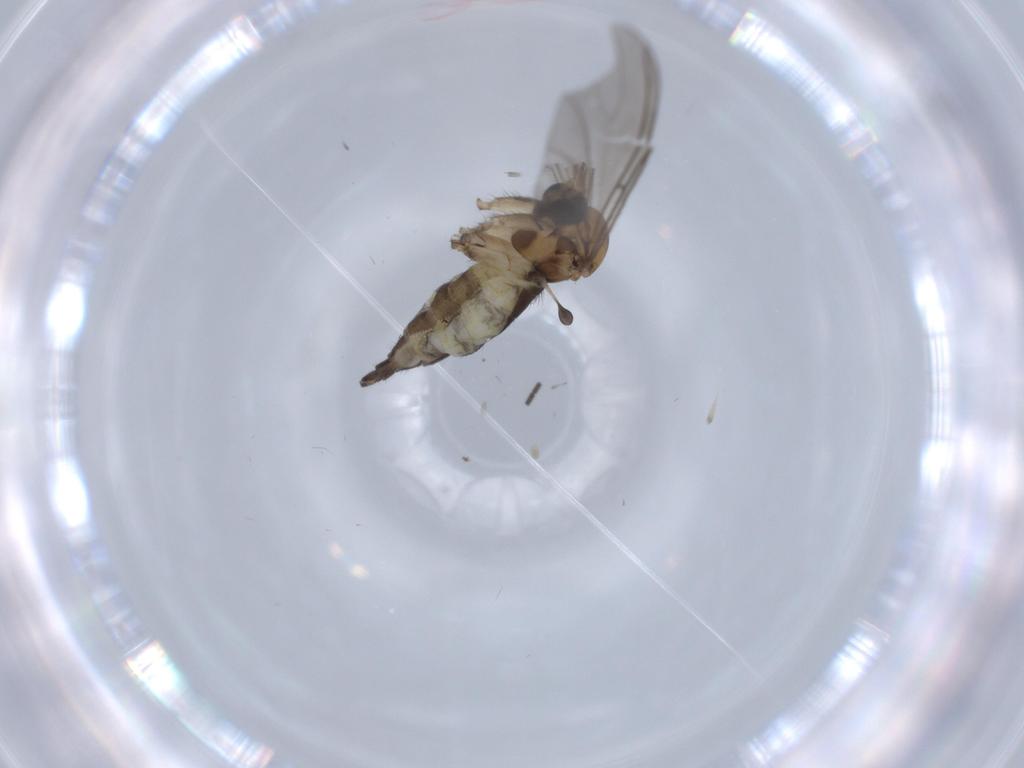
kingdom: Animalia
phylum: Arthropoda
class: Insecta
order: Diptera
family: Sciaridae
